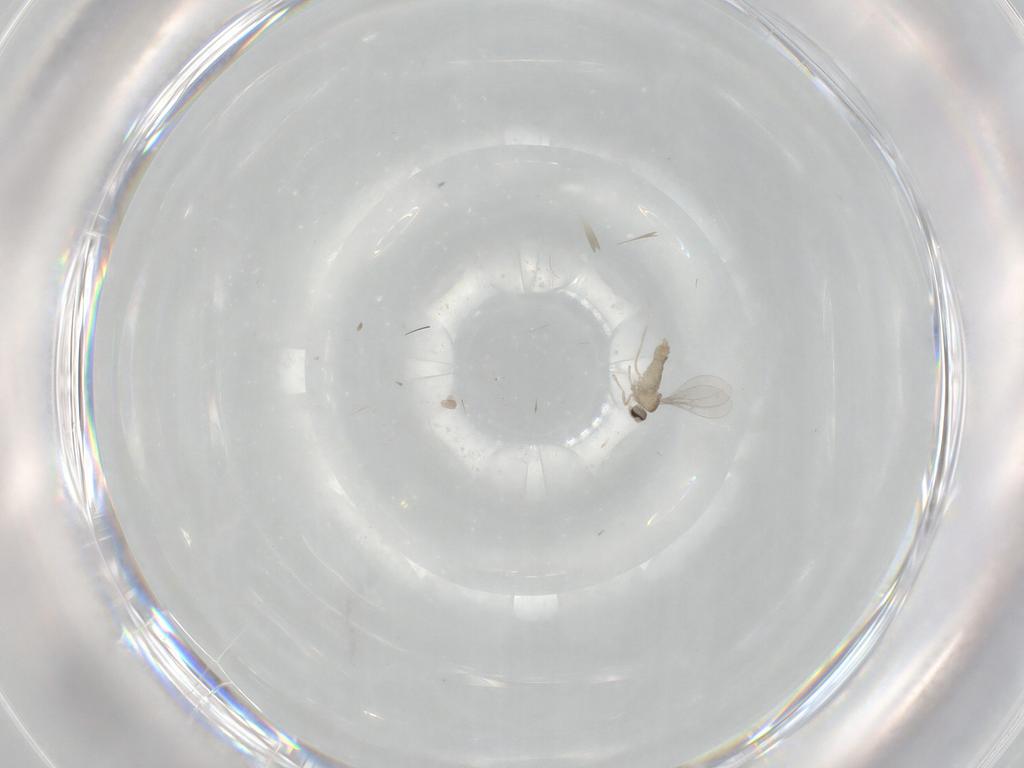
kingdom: Animalia
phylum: Arthropoda
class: Insecta
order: Diptera
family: Cecidomyiidae
